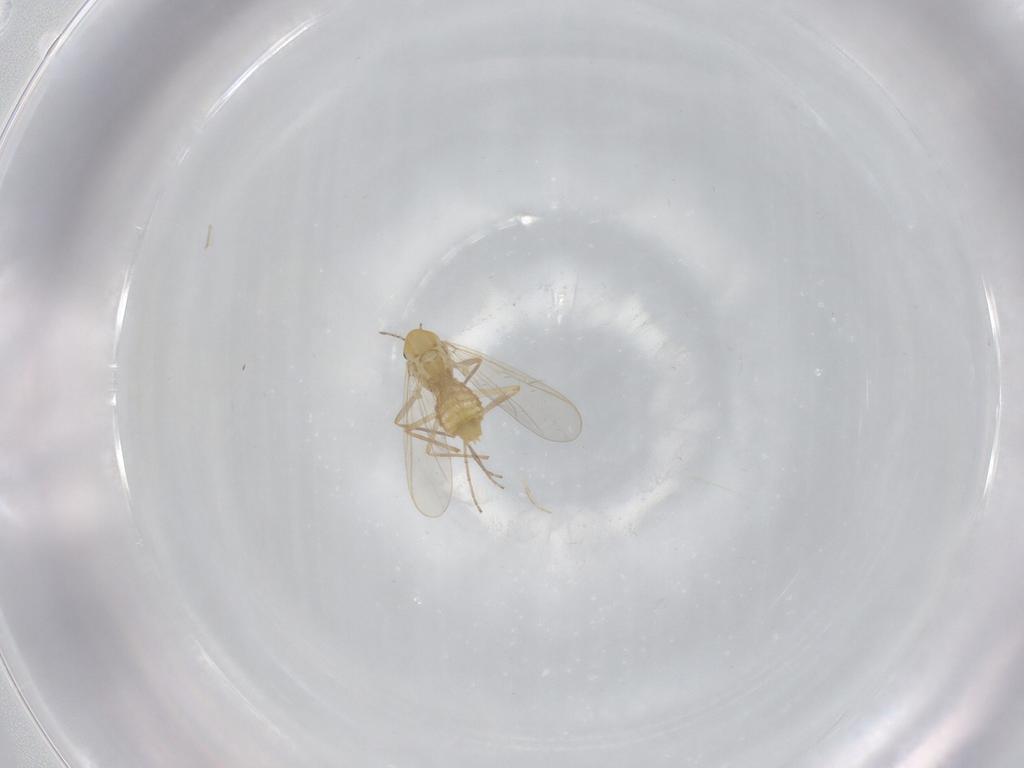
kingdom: Animalia
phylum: Arthropoda
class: Insecta
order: Diptera
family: Chironomidae
